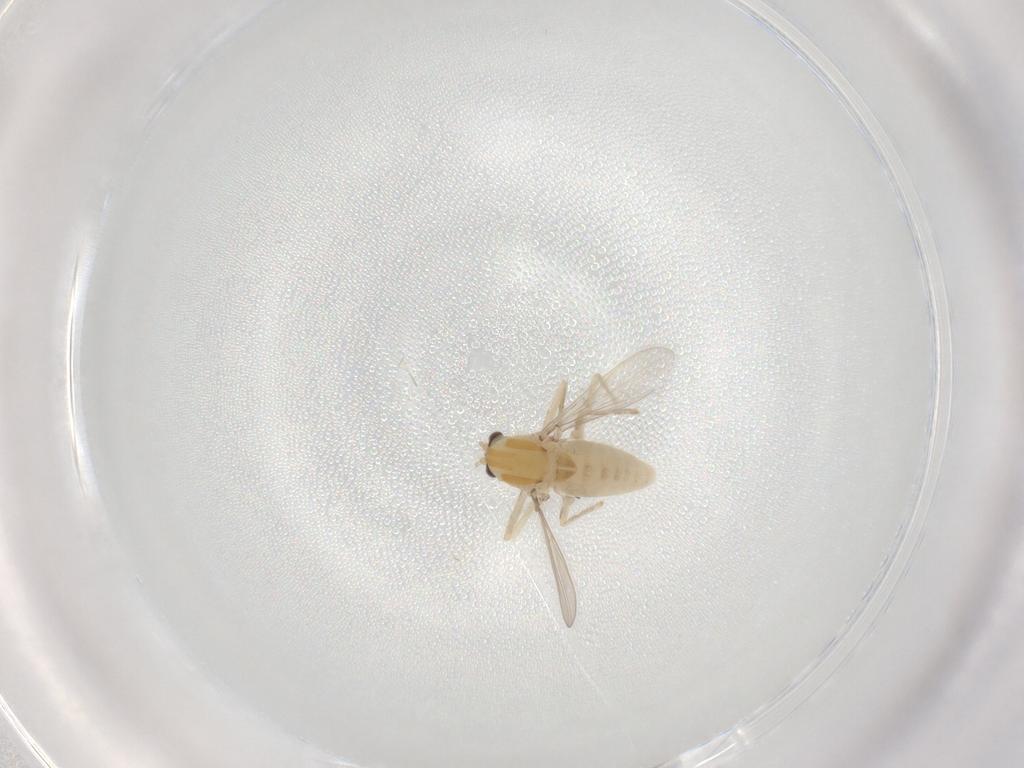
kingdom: Animalia
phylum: Arthropoda
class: Insecta
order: Diptera
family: Chironomidae
